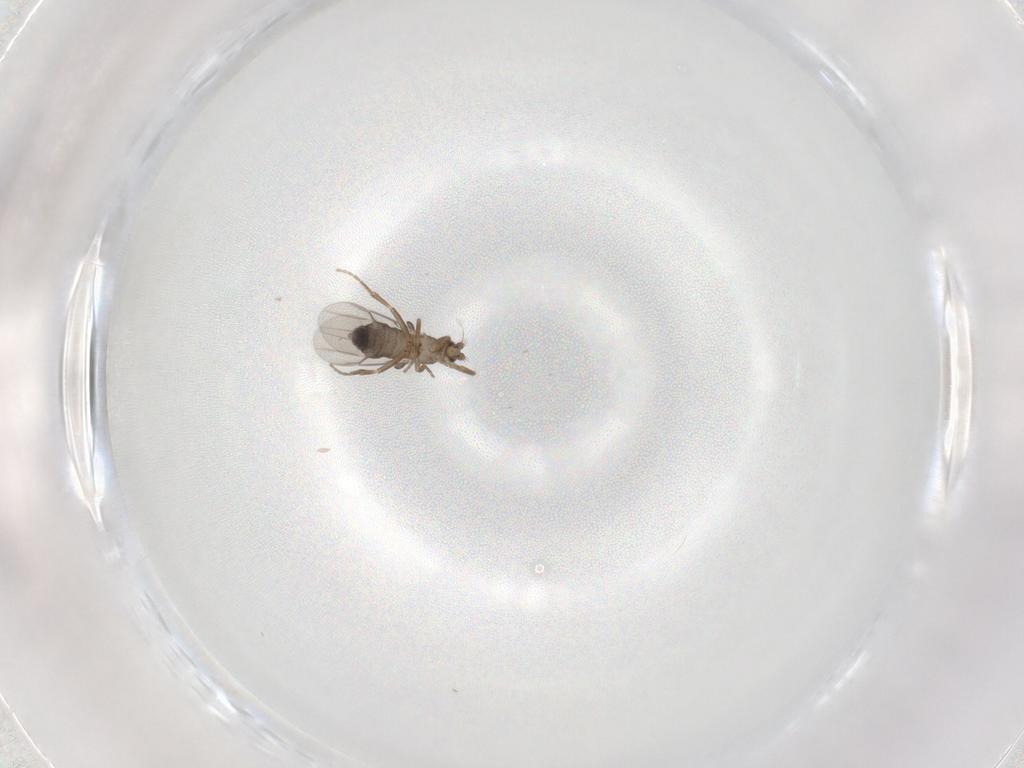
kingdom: Animalia
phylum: Arthropoda
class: Insecta
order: Diptera
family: Phoridae
